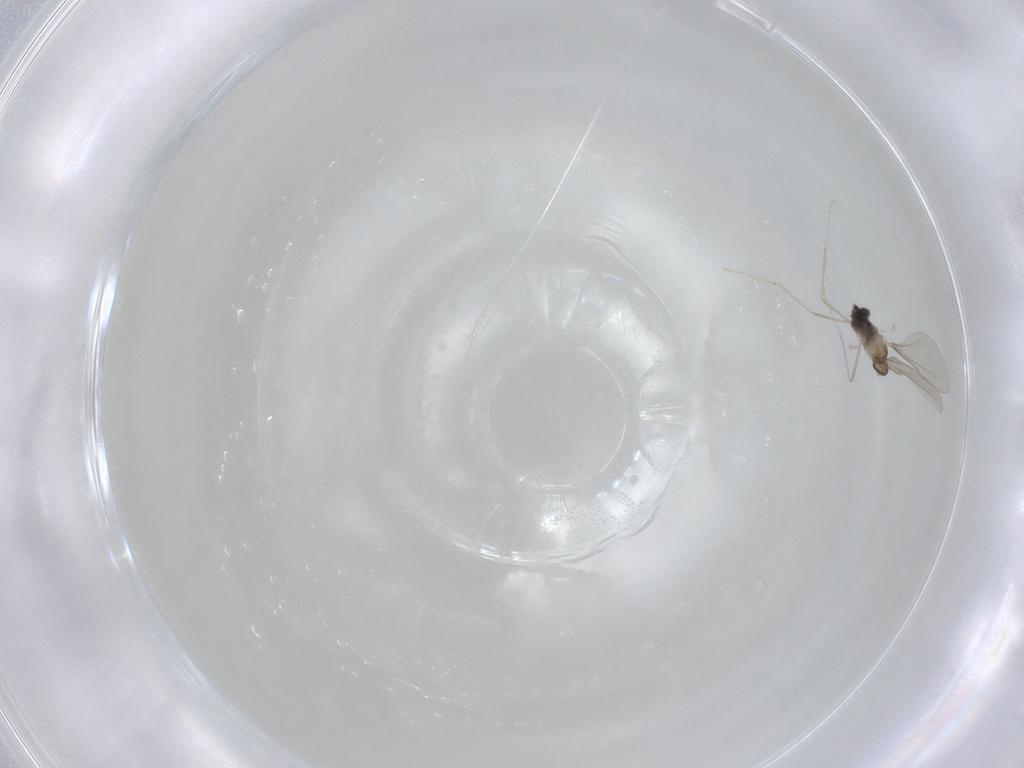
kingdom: Animalia
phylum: Arthropoda
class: Insecta
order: Diptera
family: Cecidomyiidae
